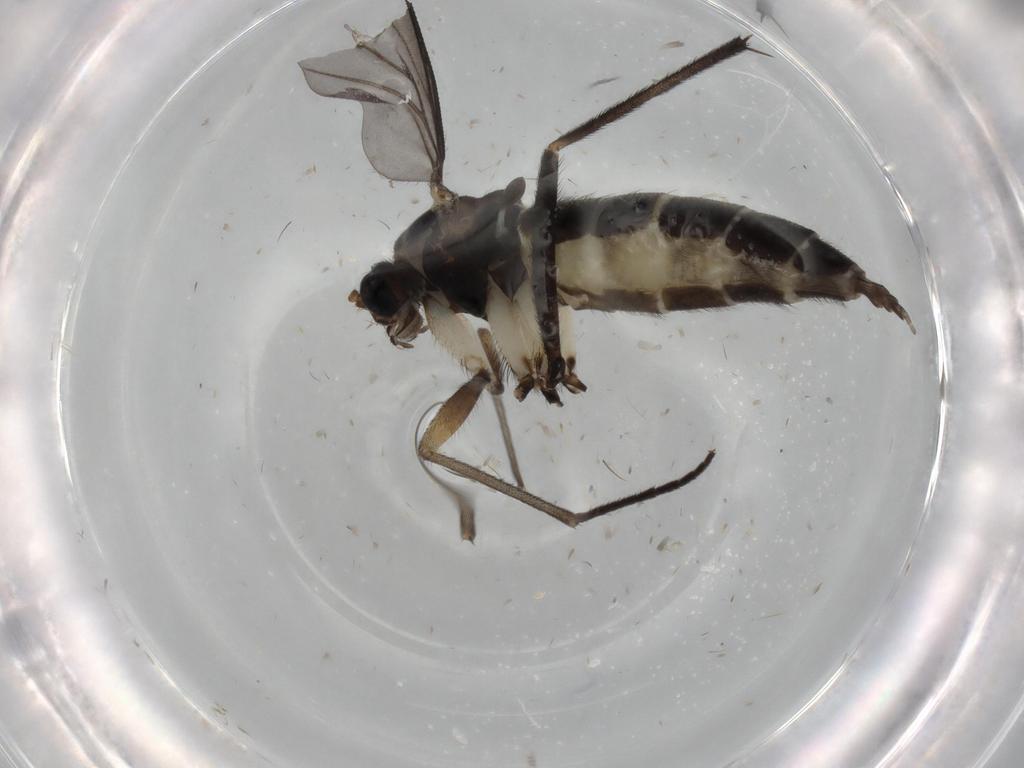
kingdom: Animalia
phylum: Arthropoda
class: Insecta
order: Diptera
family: Sciaridae
